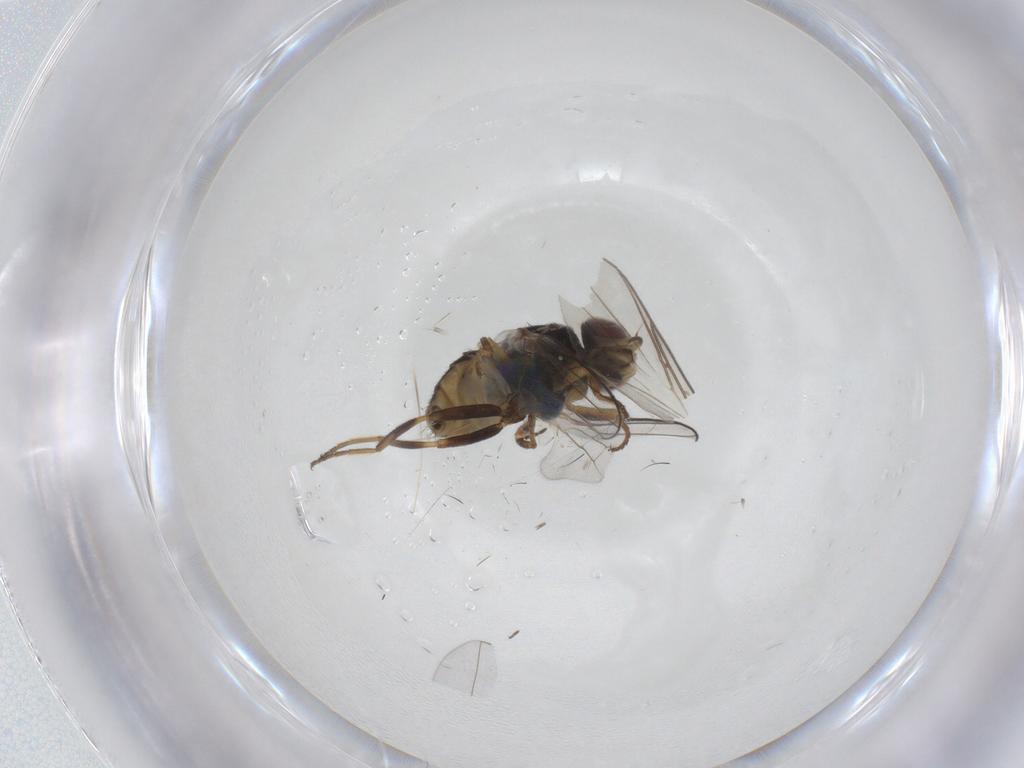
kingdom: Animalia
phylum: Arthropoda
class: Insecta
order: Diptera
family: Chloropidae
